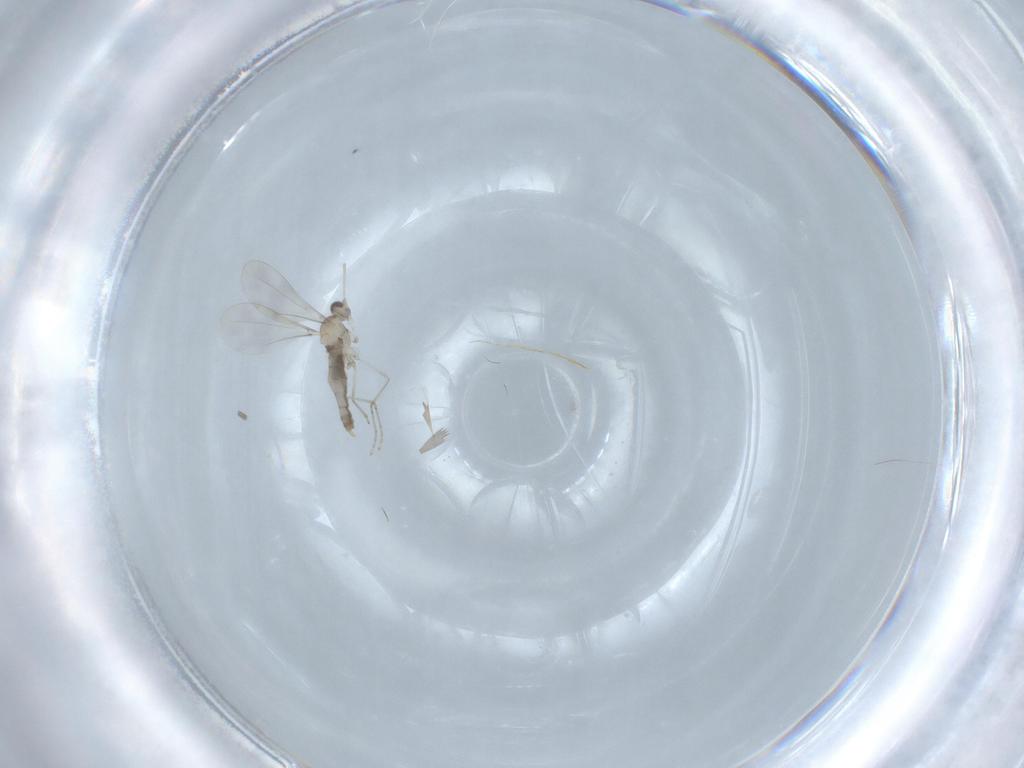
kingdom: Animalia
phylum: Arthropoda
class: Insecta
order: Diptera
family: Cecidomyiidae
